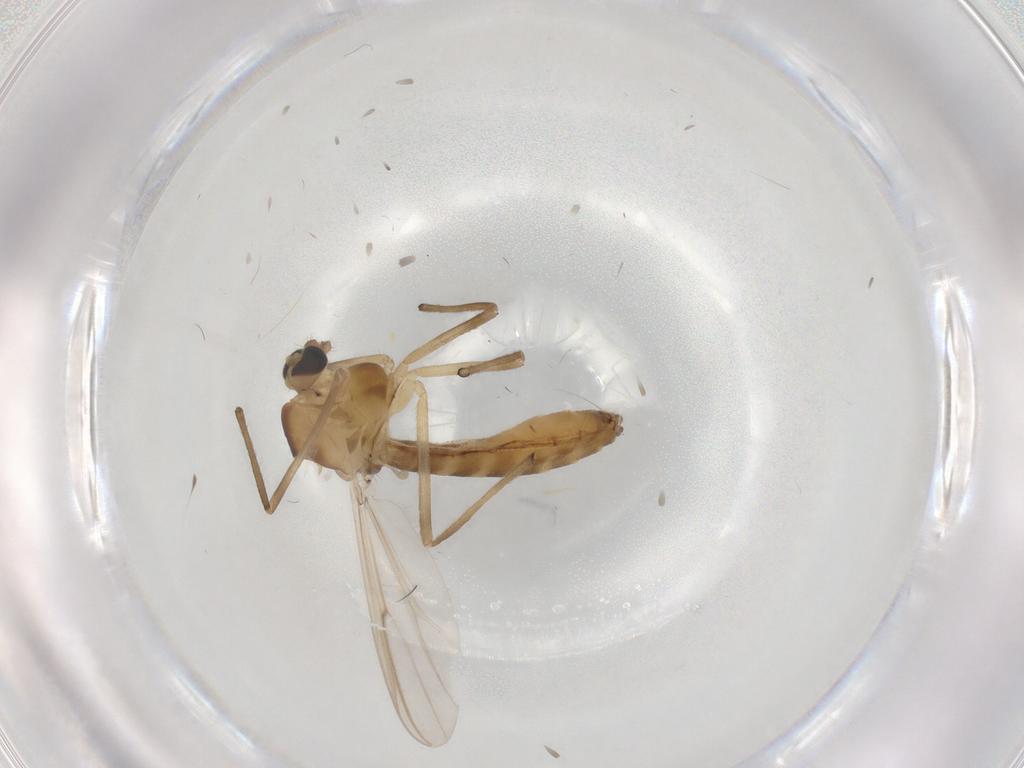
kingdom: Animalia
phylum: Arthropoda
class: Insecta
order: Diptera
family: Chironomidae
